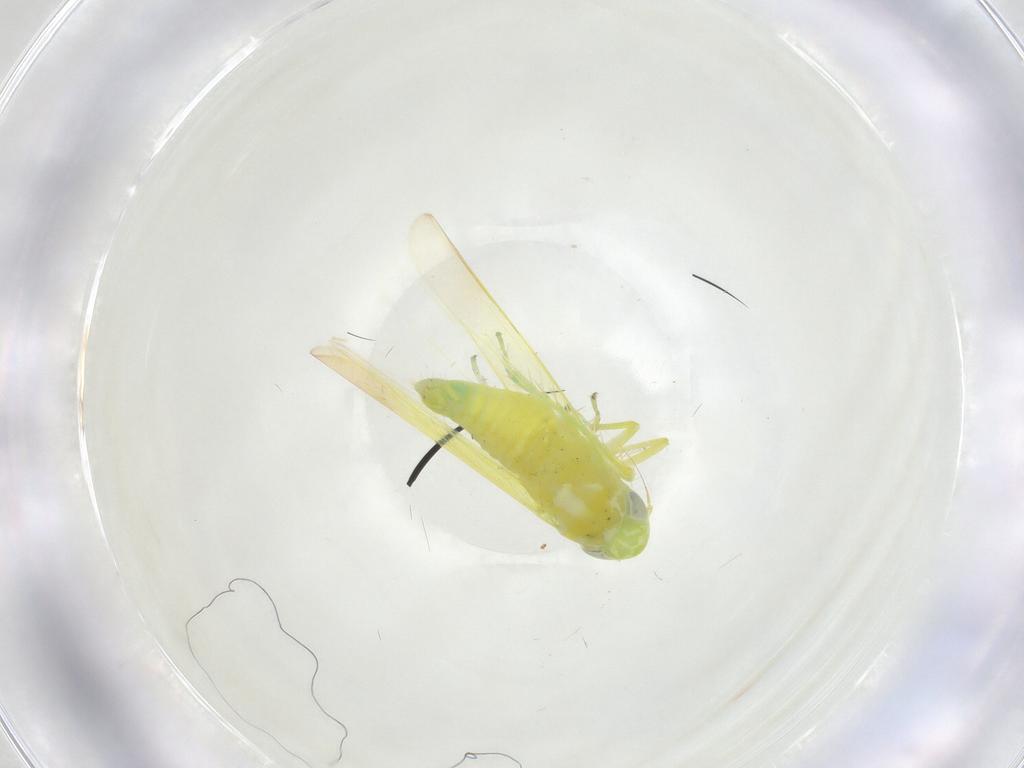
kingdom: Animalia
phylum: Arthropoda
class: Insecta
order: Hemiptera
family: Cicadellidae
